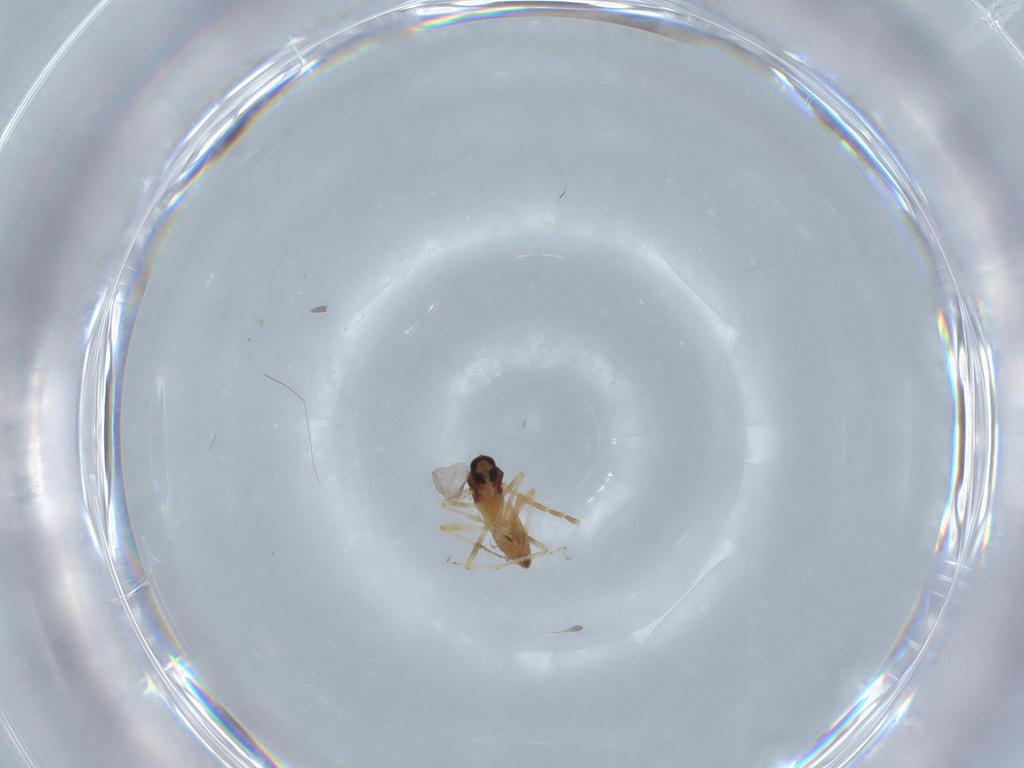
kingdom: Animalia
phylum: Arthropoda
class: Insecta
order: Diptera
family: Ceratopogonidae
